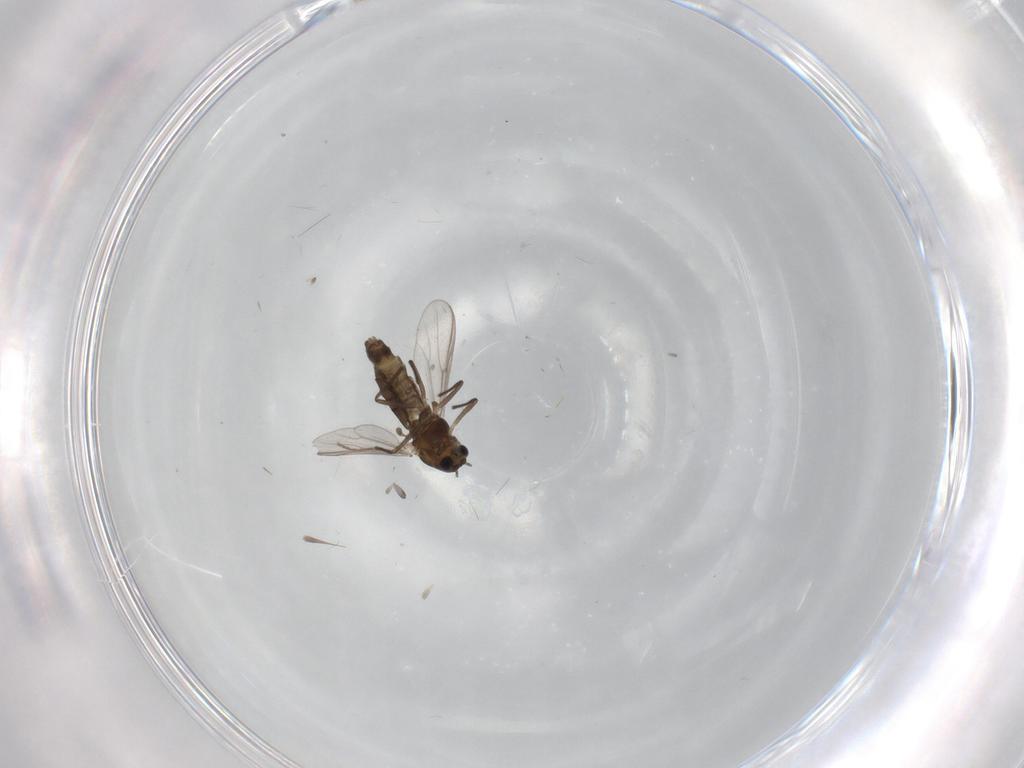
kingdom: Animalia
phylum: Arthropoda
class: Insecta
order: Diptera
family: Chironomidae
